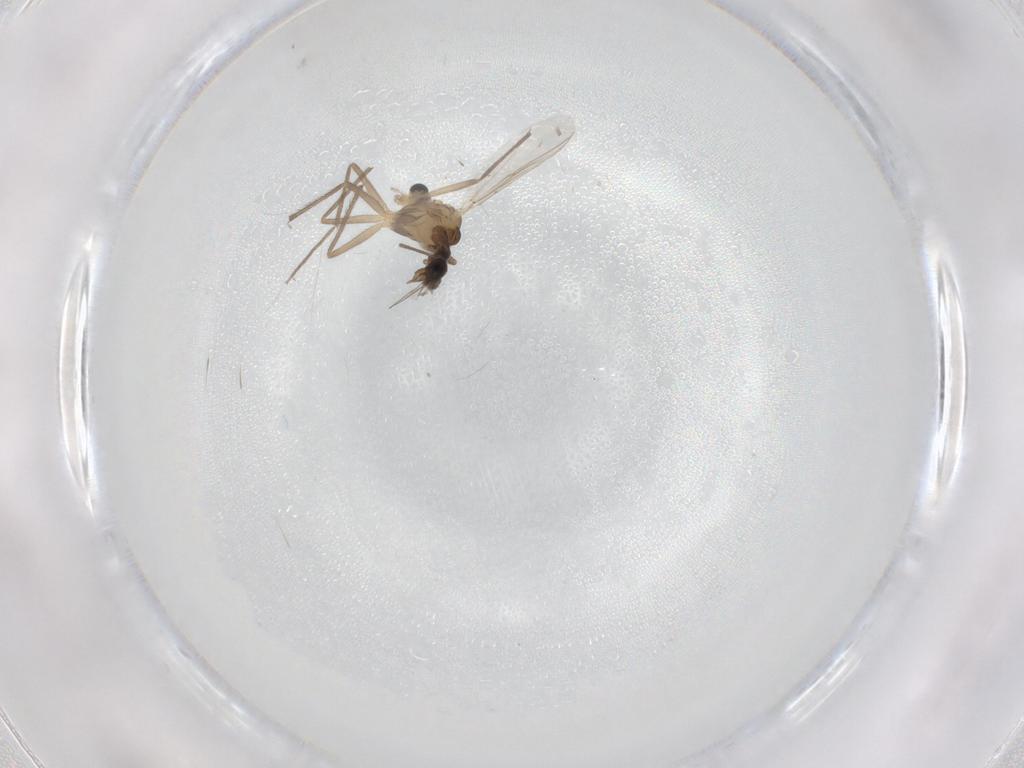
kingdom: Animalia
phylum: Arthropoda
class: Insecta
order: Diptera
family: Chironomidae
